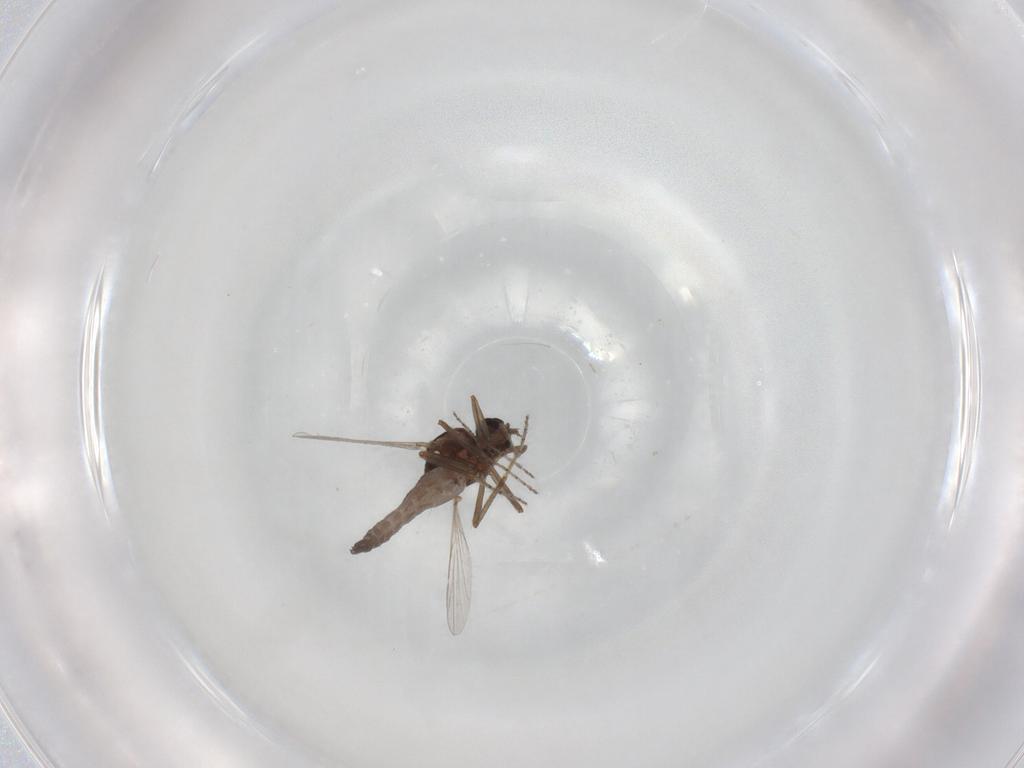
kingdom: Animalia
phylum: Arthropoda
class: Insecta
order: Diptera
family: Ceratopogonidae
